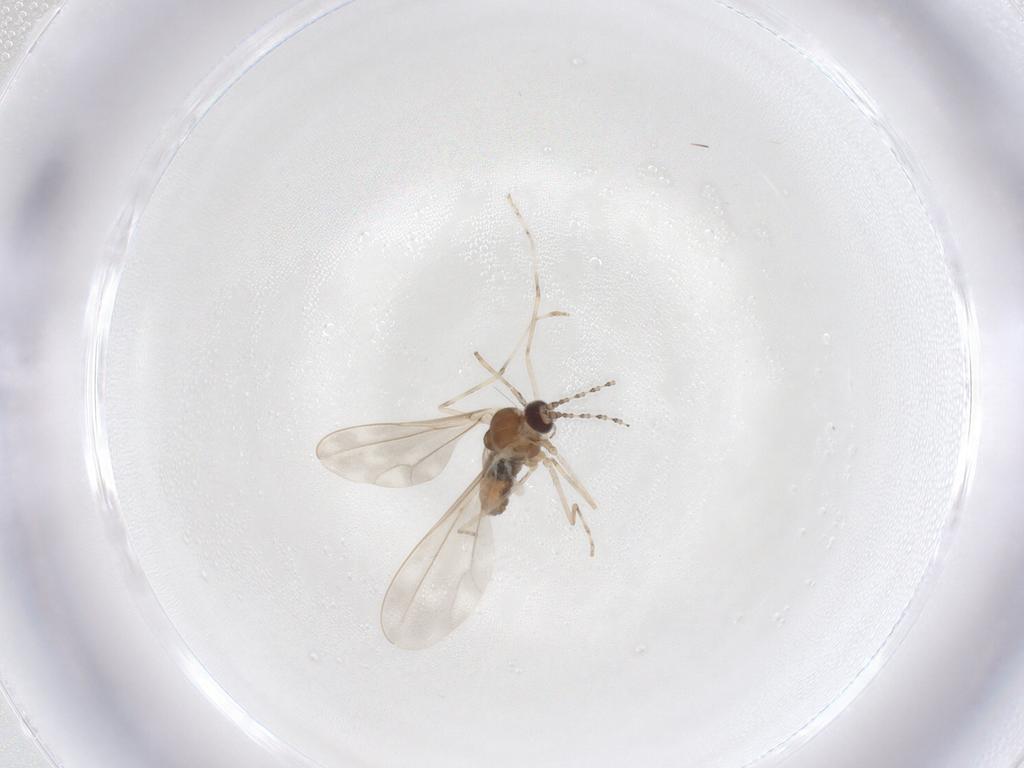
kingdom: Animalia
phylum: Arthropoda
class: Insecta
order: Diptera
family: Cecidomyiidae
